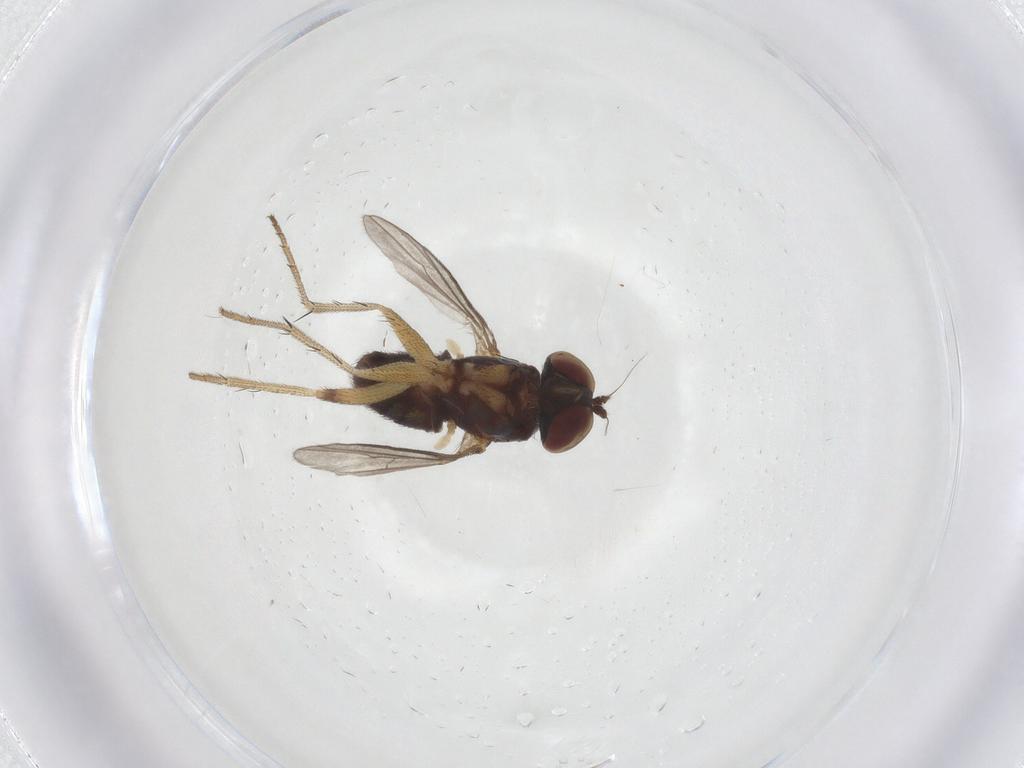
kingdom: Animalia
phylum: Arthropoda
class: Insecta
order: Diptera
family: Chironomidae
